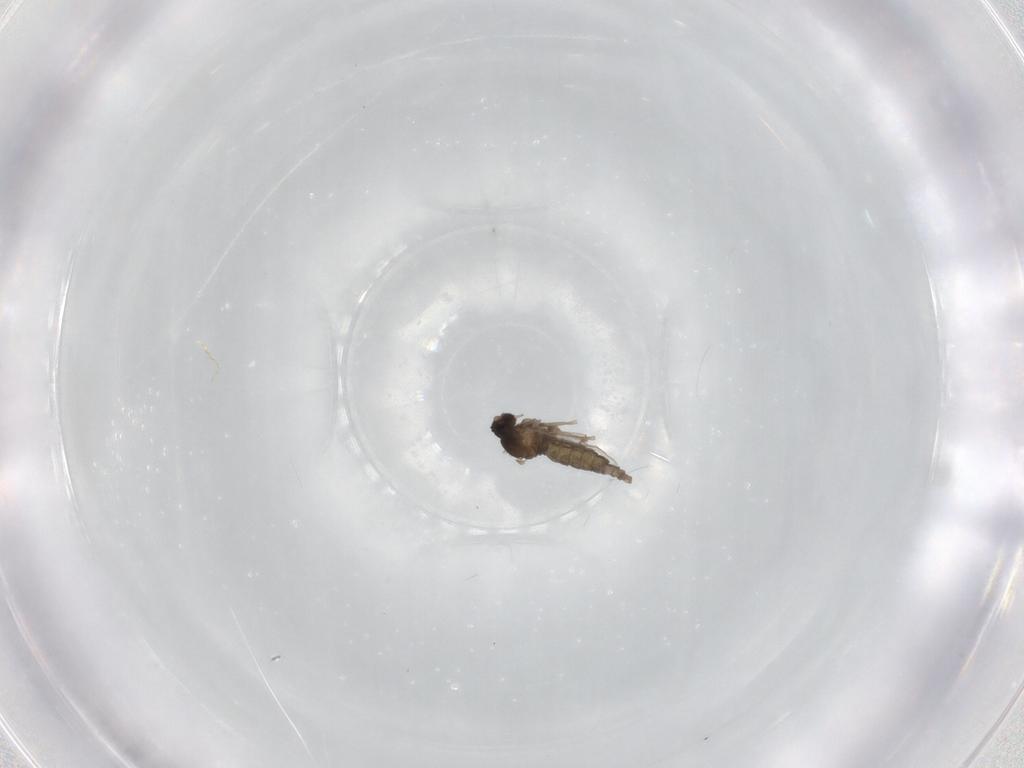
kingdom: Animalia
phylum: Arthropoda
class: Insecta
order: Diptera
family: Cecidomyiidae
